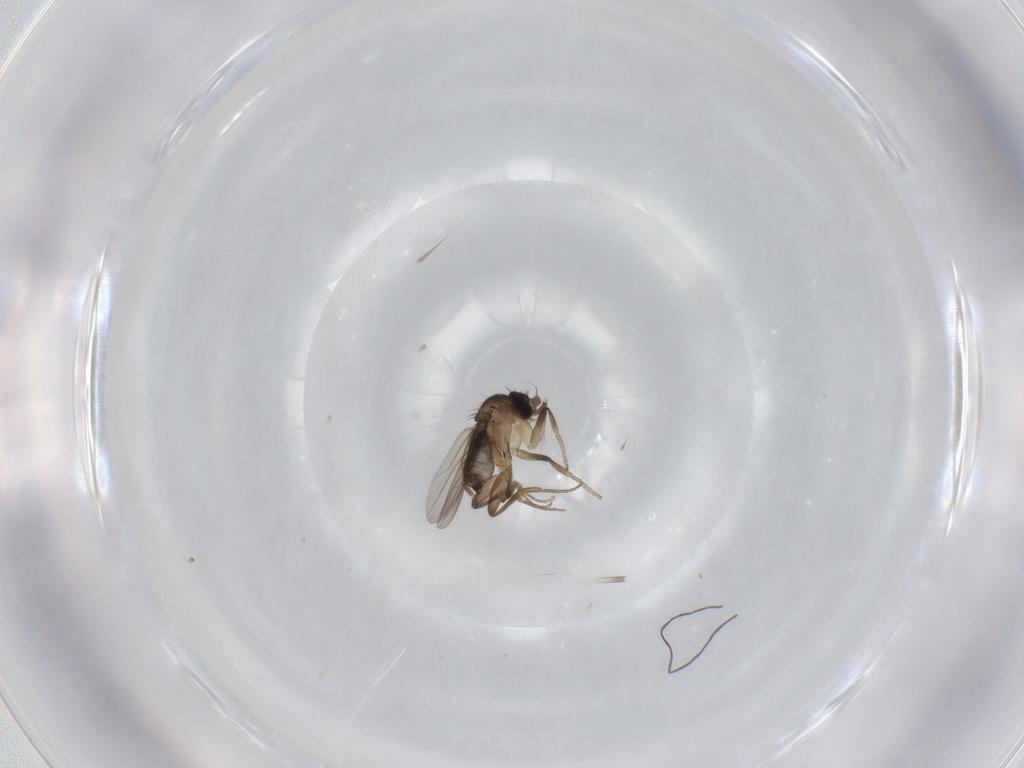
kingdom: Animalia
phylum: Arthropoda
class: Insecta
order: Diptera
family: Phoridae
